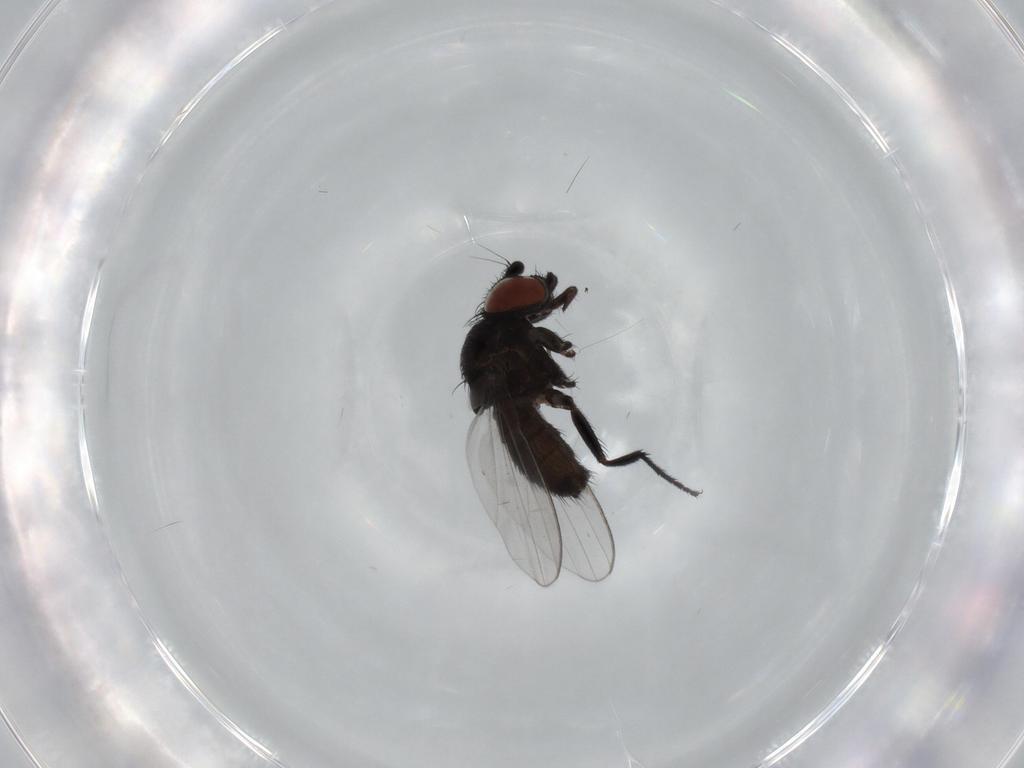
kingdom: Animalia
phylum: Arthropoda
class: Insecta
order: Diptera
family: Milichiidae
